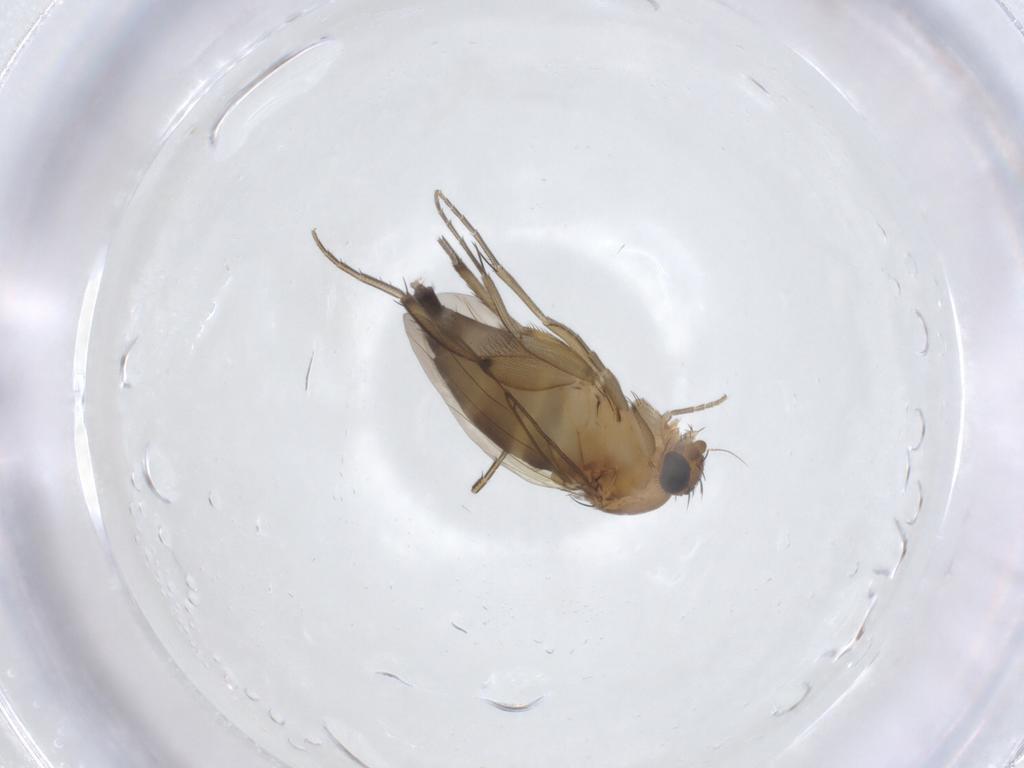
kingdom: Animalia
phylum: Arthropoda
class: Insecta
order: Diptera
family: Phoridae
